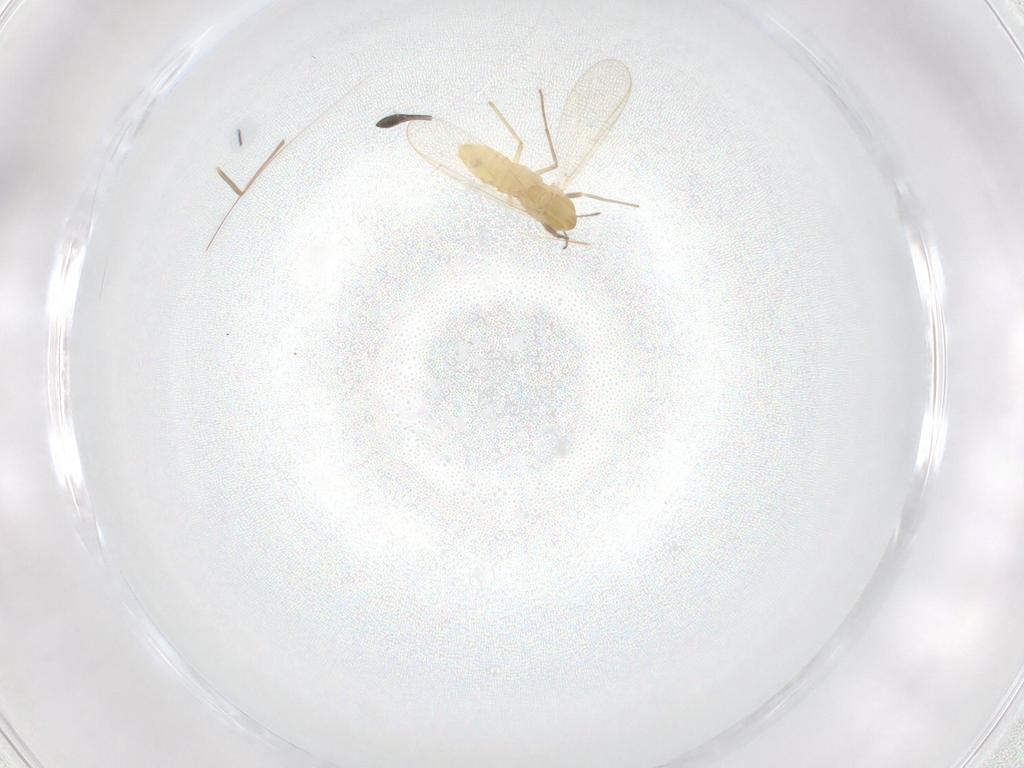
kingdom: Animalia
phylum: Arthropoda
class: Insecta
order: Diptera
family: Chironomidae
